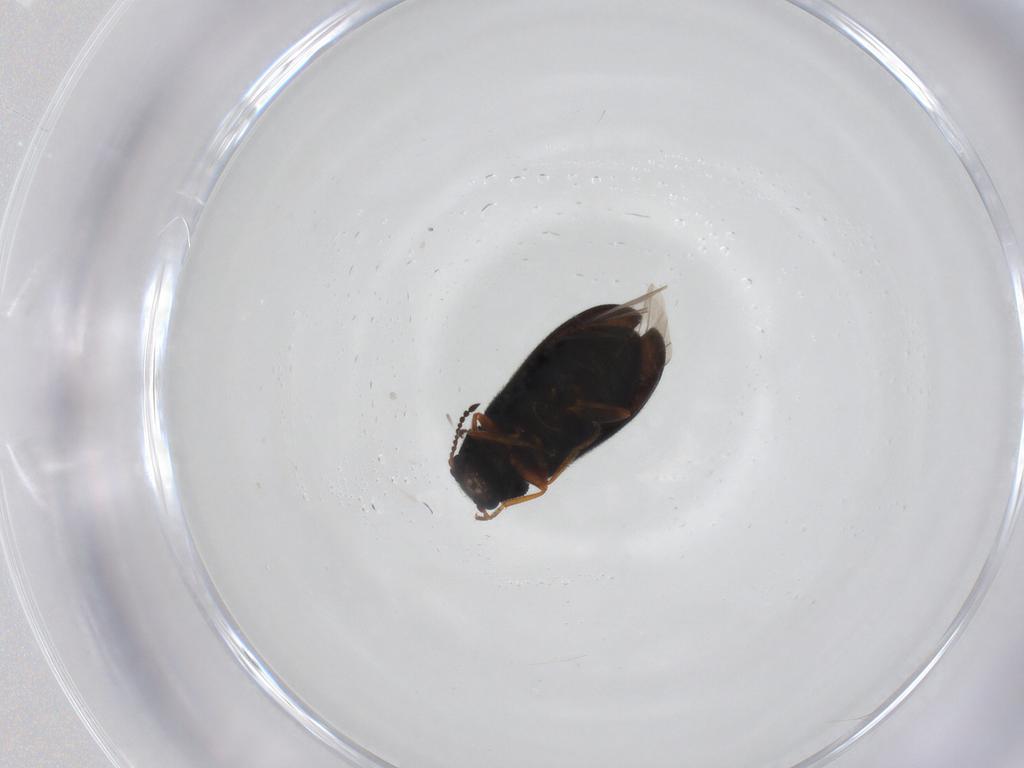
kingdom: Animalia
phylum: Arthropoda
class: Insecta
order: Coleoptera
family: Melyridae
